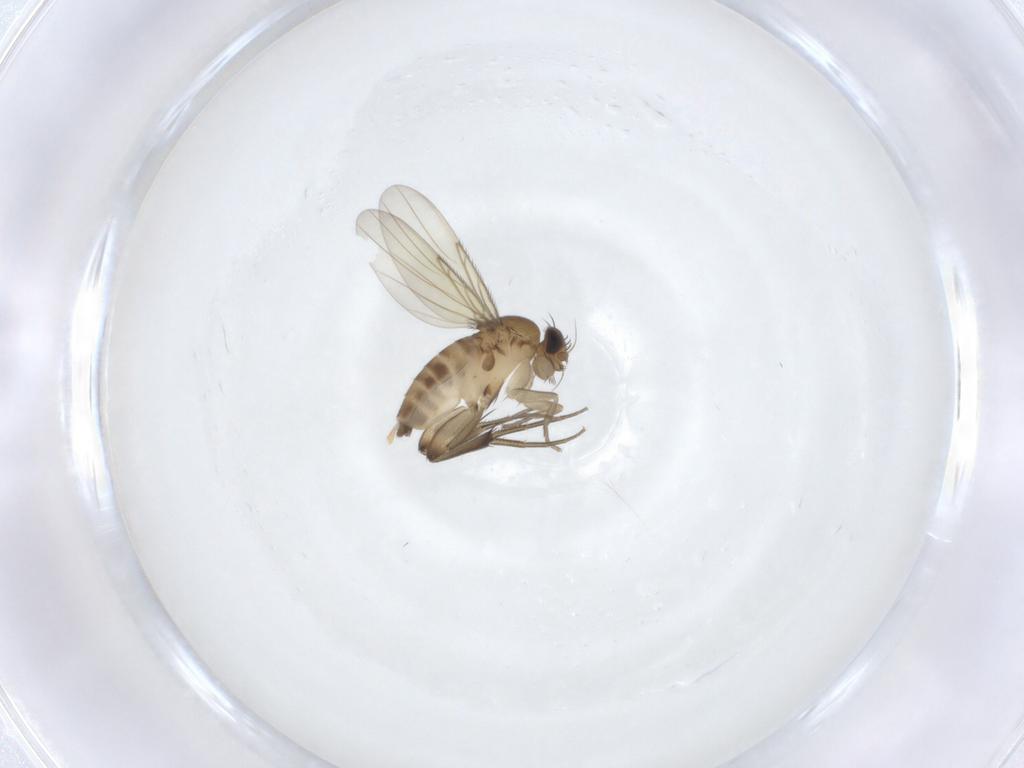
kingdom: Animalia
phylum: Arthropoda
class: Insecta
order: Diptera
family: Phoridae
